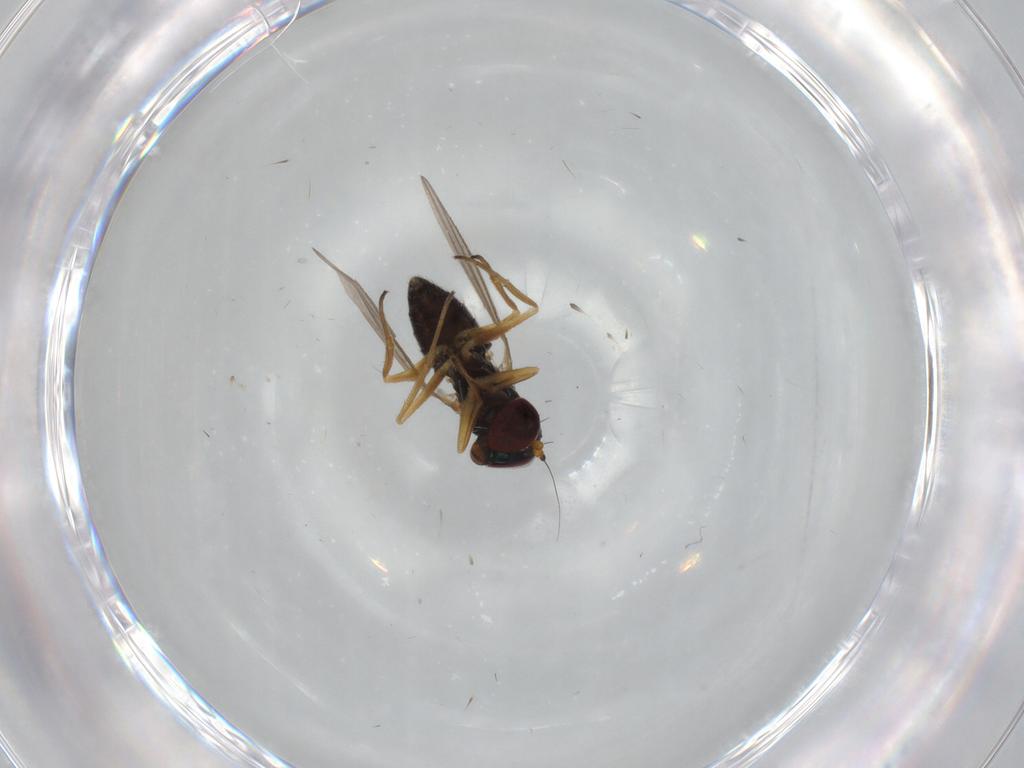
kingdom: Animalia
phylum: Arthropoda
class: Insecta
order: Diptera
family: Dolichopodidae
